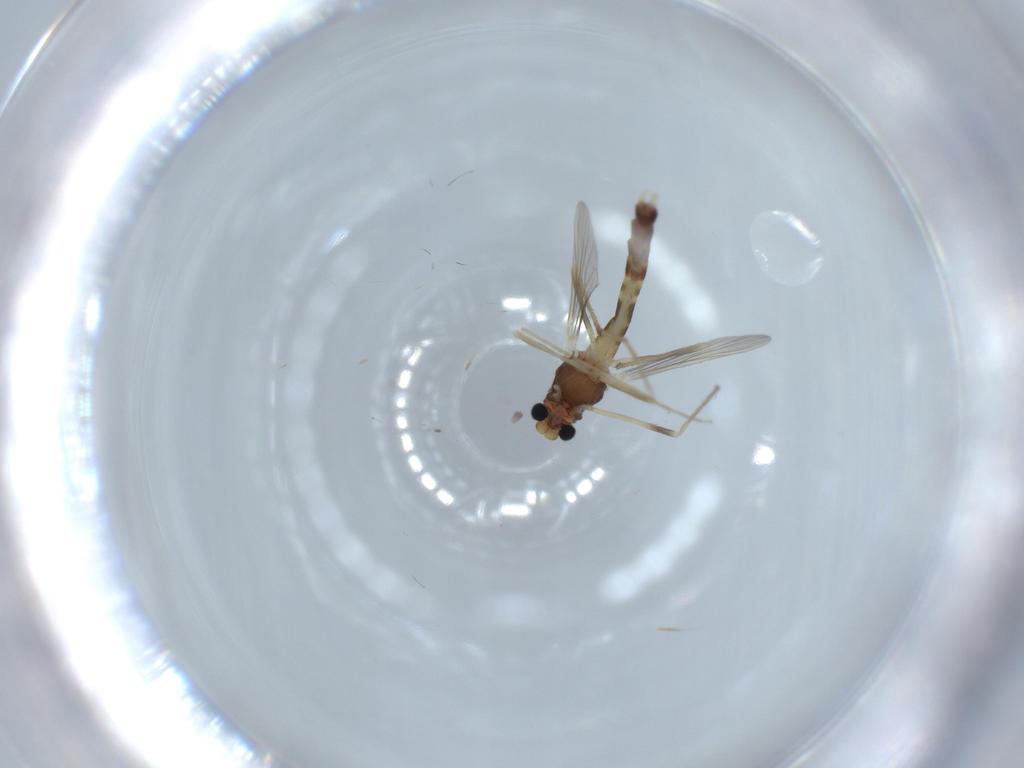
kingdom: Animalia
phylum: Arthropoda
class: Insecta
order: Diptera
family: Chironomidae
